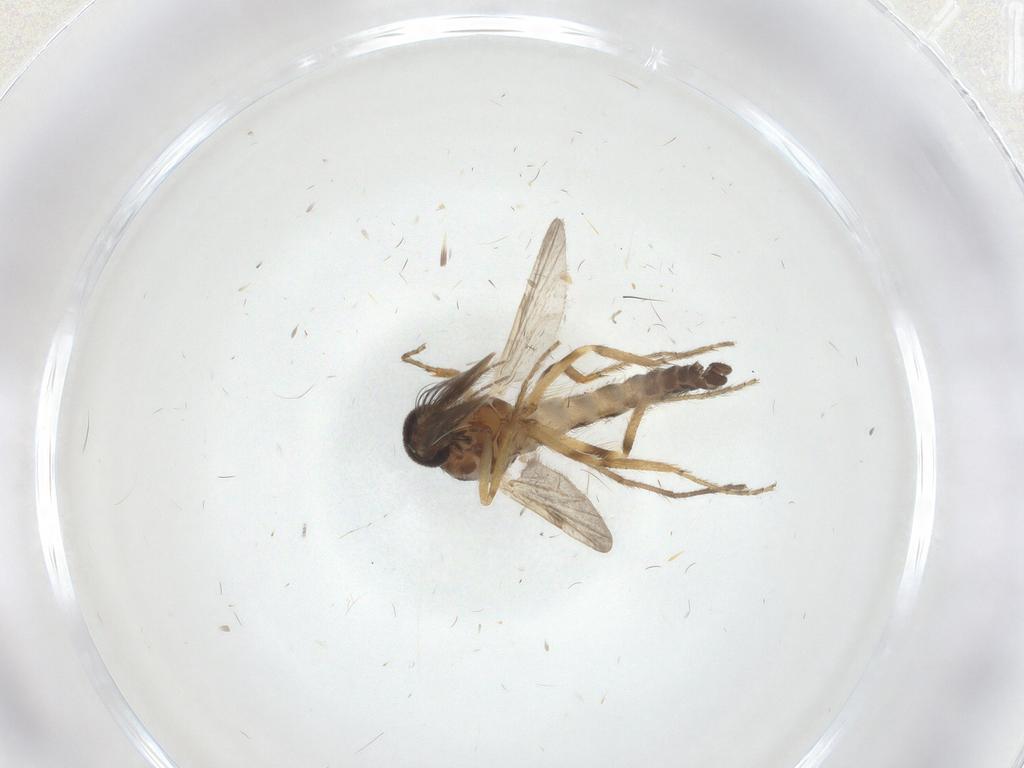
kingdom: Animalia
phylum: Arthropoda
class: Insecta
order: Diptera
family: Ceratopogonidae
